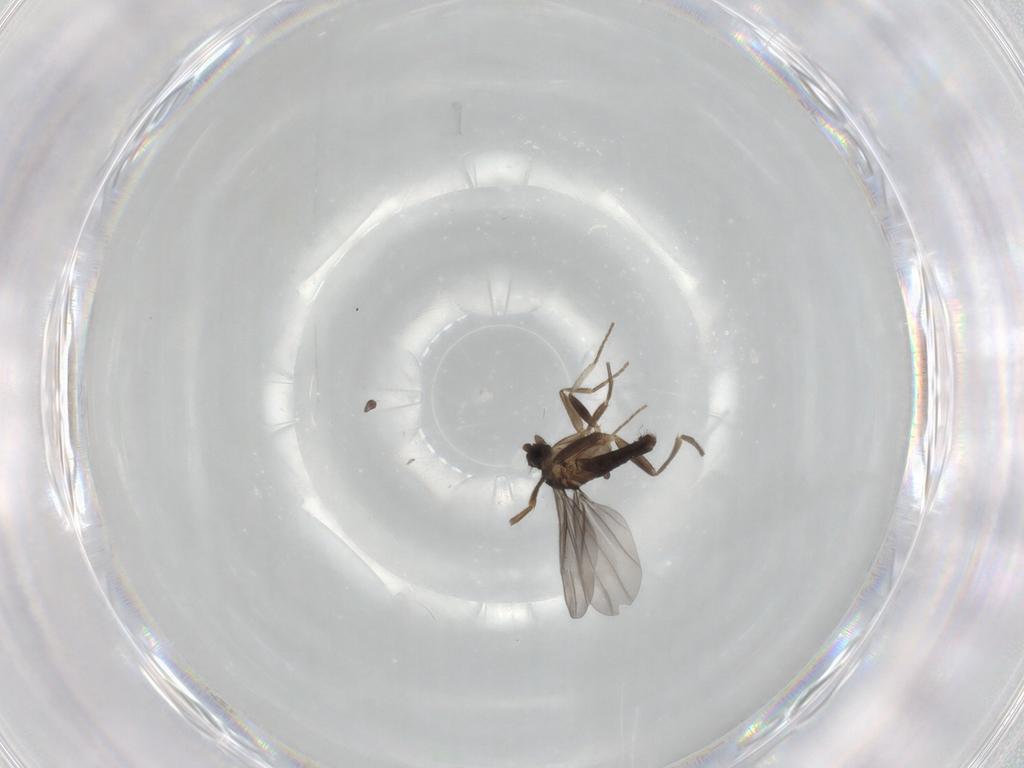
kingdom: Animalia
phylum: Arthropoda
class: Insecta
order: Diptera
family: Phoridae
